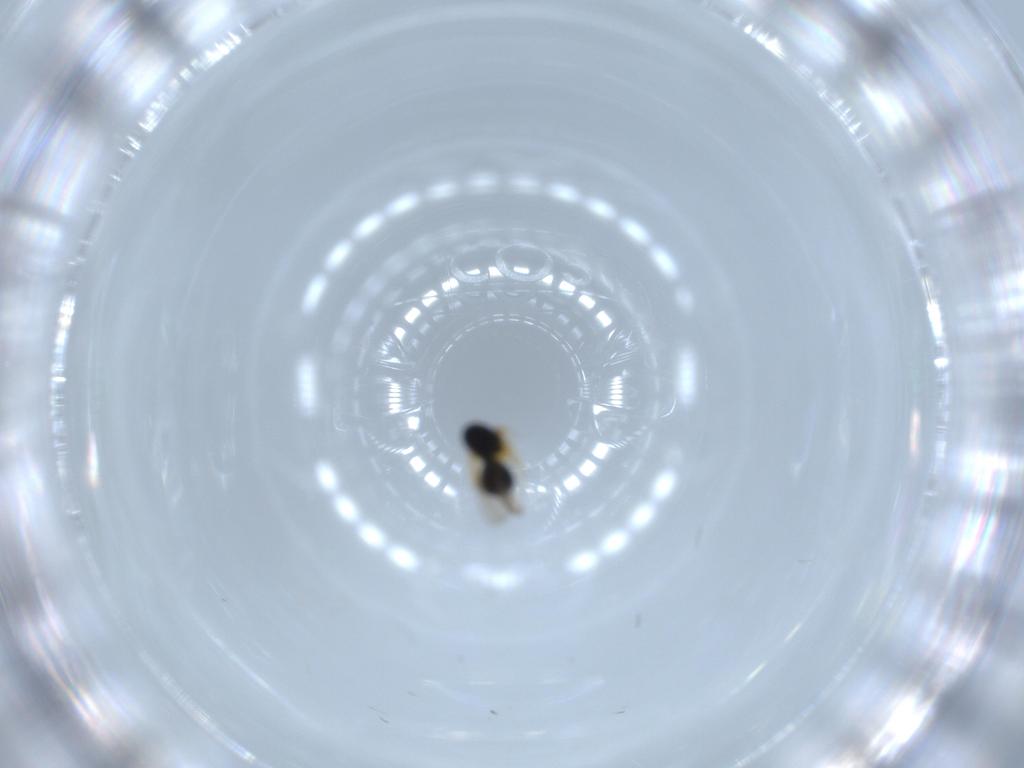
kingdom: Animalia
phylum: Arthropoda
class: Insecta
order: Hymenoptera
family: Scelionidae
